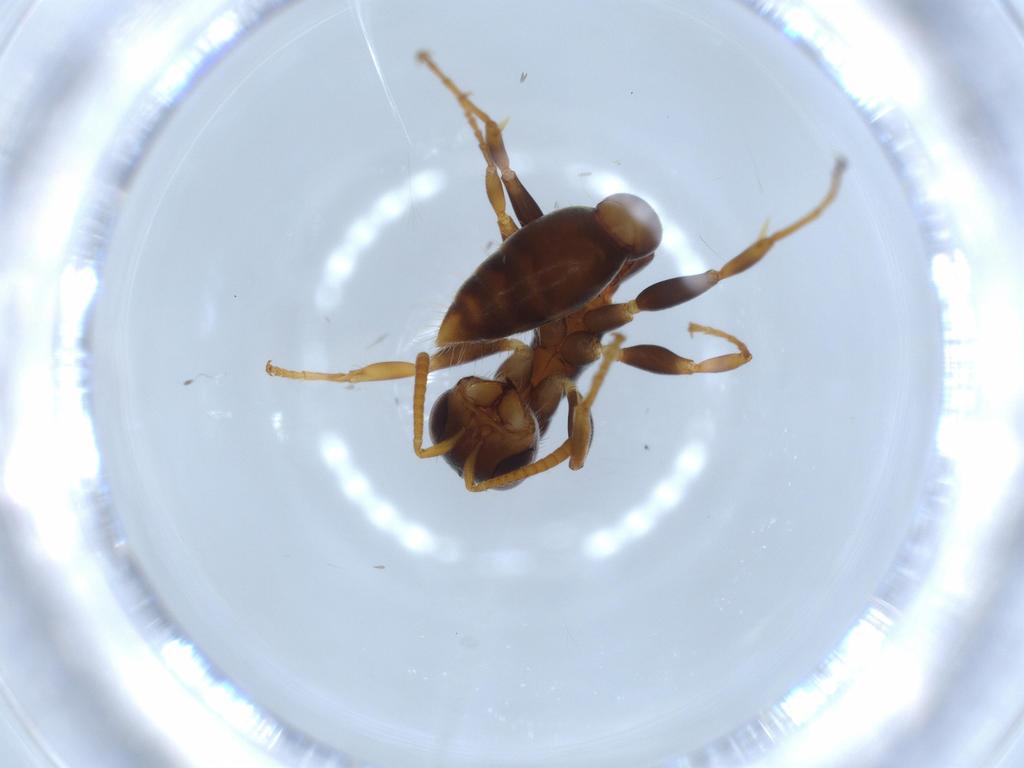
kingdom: Animalia
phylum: Arthropoda
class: Insecta
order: Hymenoptera
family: Formicidae
